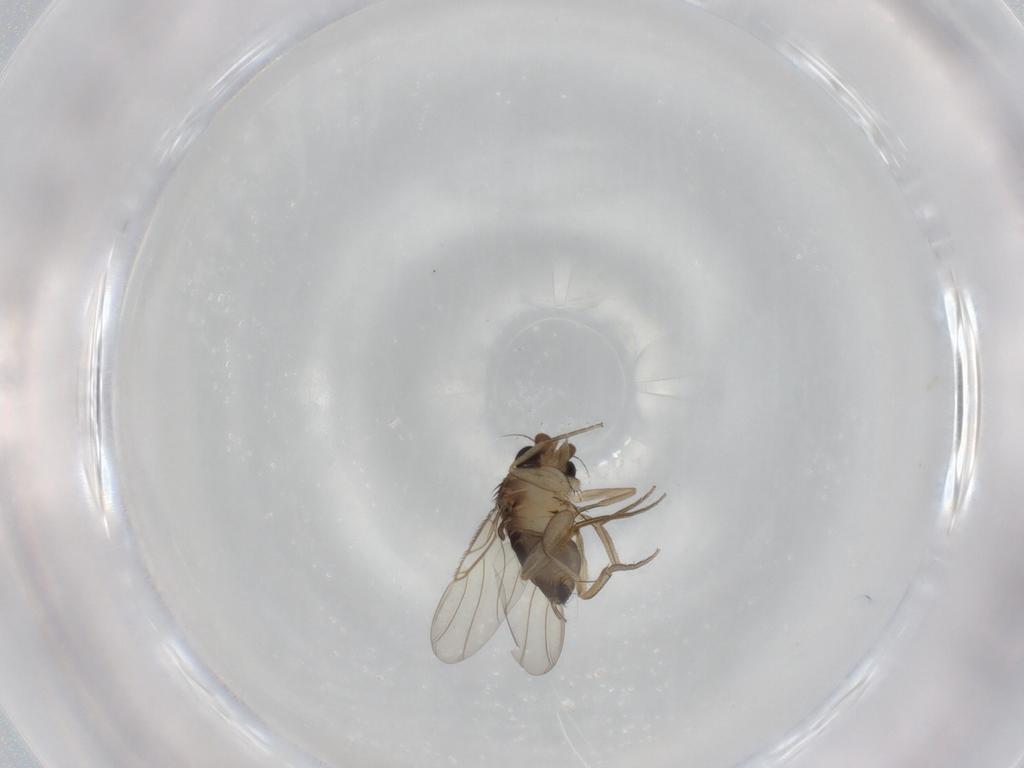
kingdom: Animalia
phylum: Arthropoda
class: Insecta
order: Diptera
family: Phoridae
